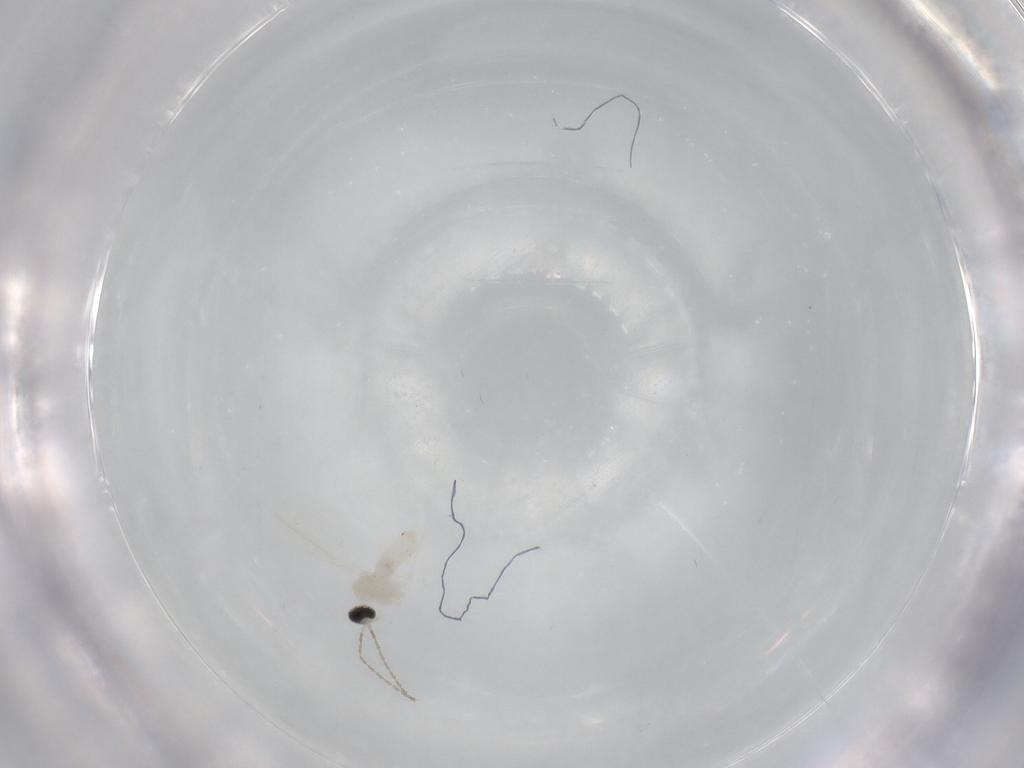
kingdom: Animalia
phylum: Arthropoda
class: Insecta
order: Diptera
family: Cecidomyiidae
